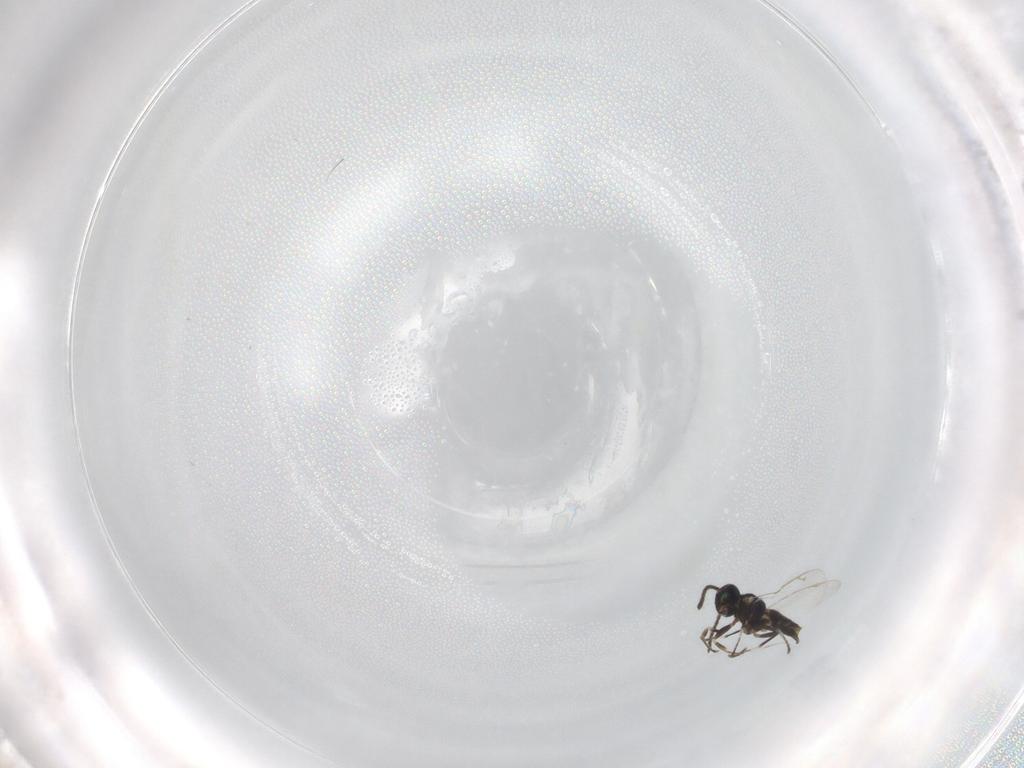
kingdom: Animalia
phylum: Arthropoda
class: Insecta
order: Hymenoptera
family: Eupelmidae
